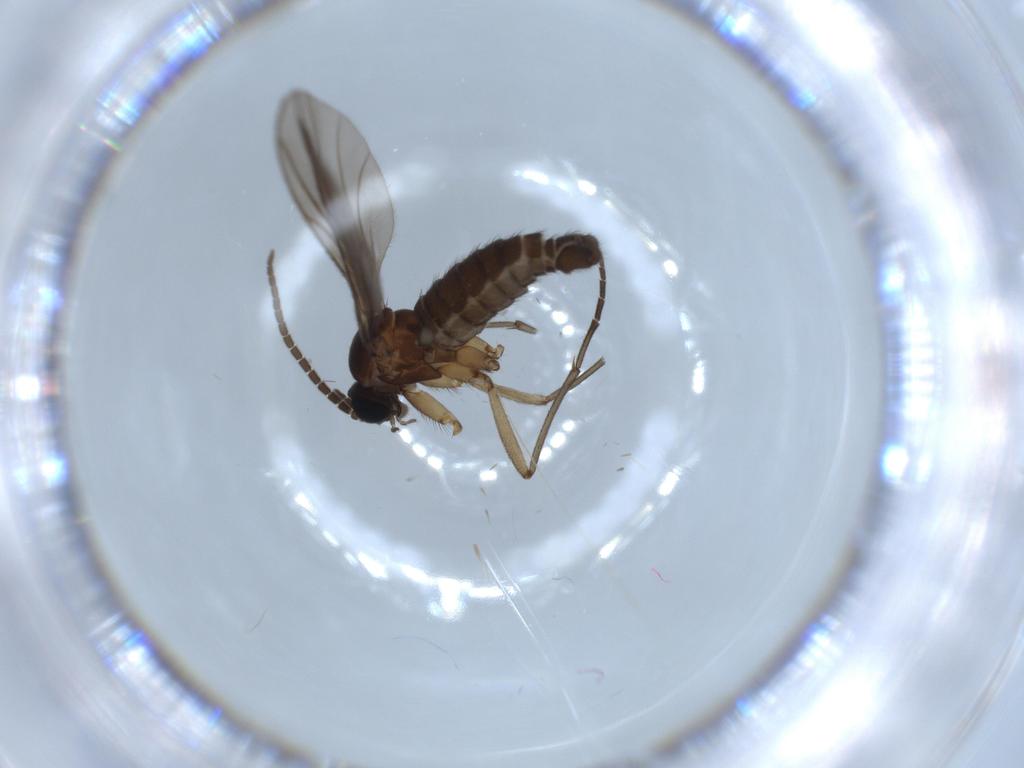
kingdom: Animalia
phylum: Arthropoda
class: Insecta
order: Diptera
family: Sciaridae
